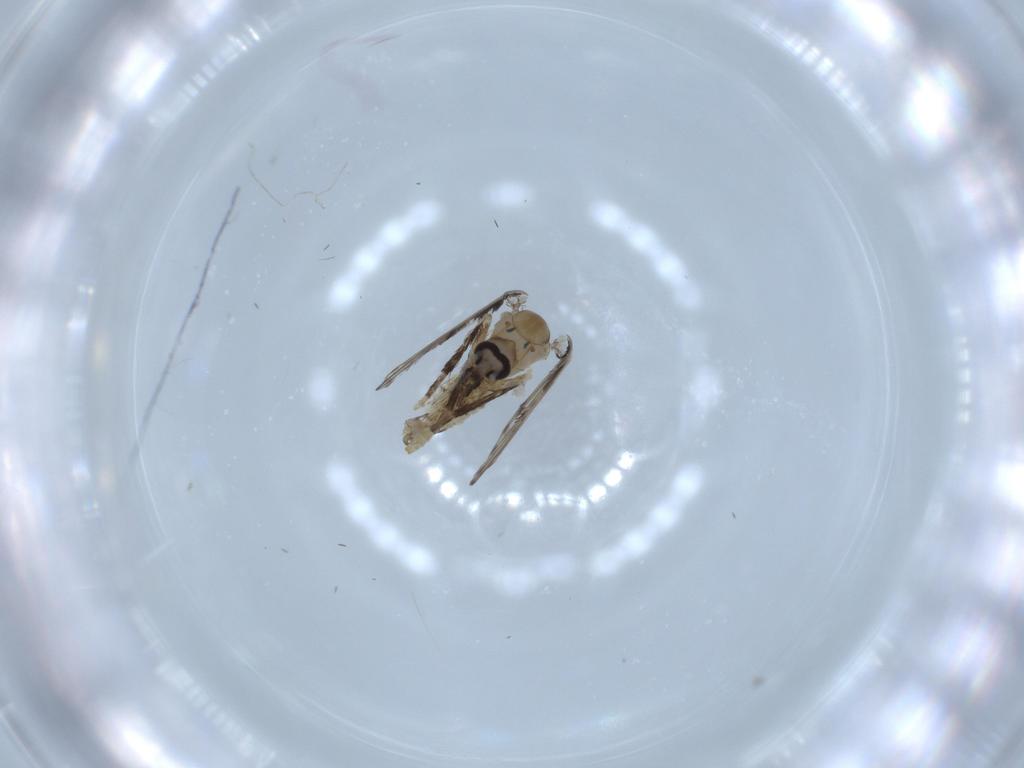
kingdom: Animalia
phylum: Arthropoda
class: Insecta
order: Diptera
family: Psychodidae
